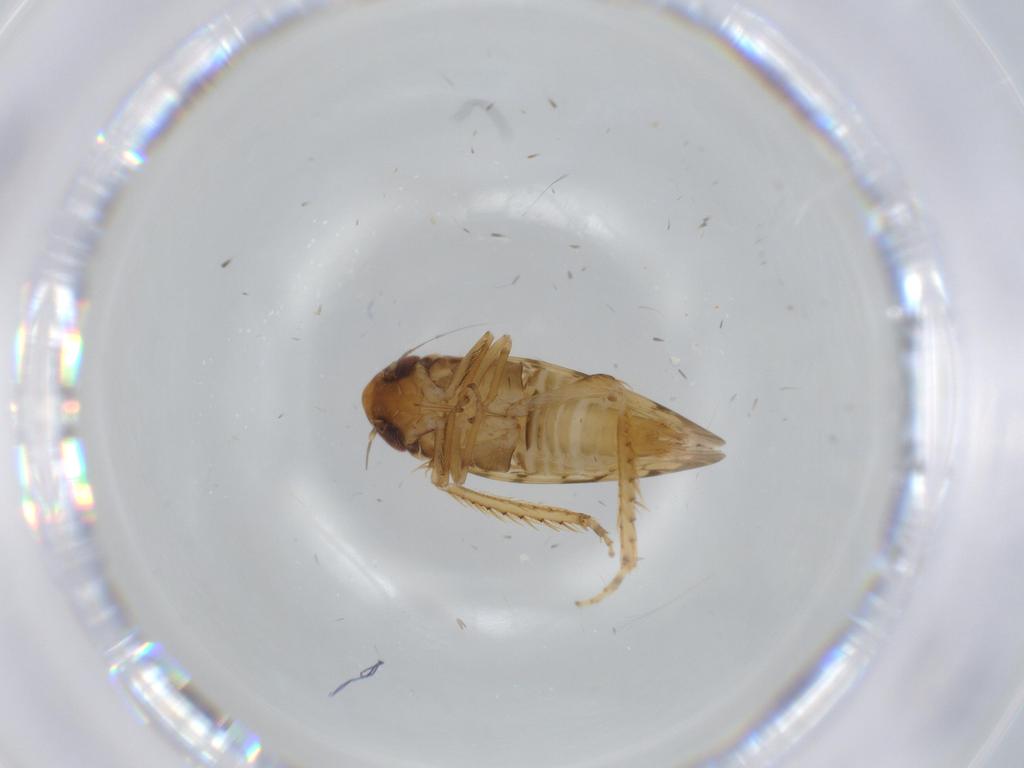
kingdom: Animalia
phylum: Arthropoda
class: Insecta
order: Hemiptera
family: Cicadellidae
